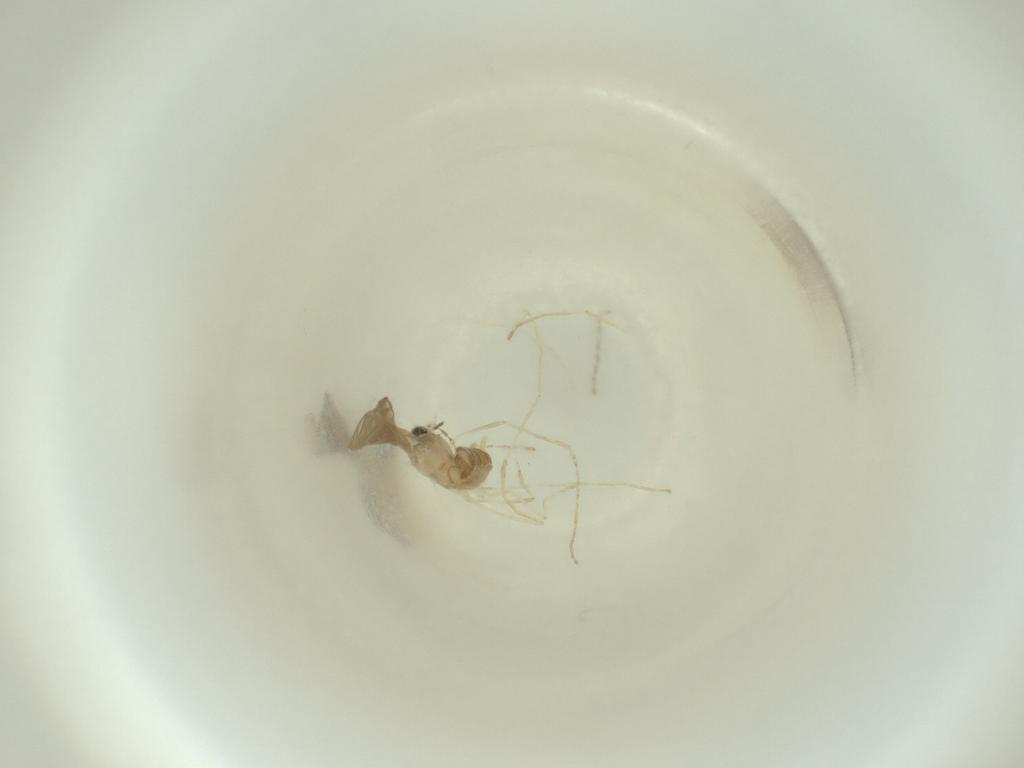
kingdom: Animalia
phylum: Arthropoda
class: Insecta
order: Diptera
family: Cecidomyiidae
